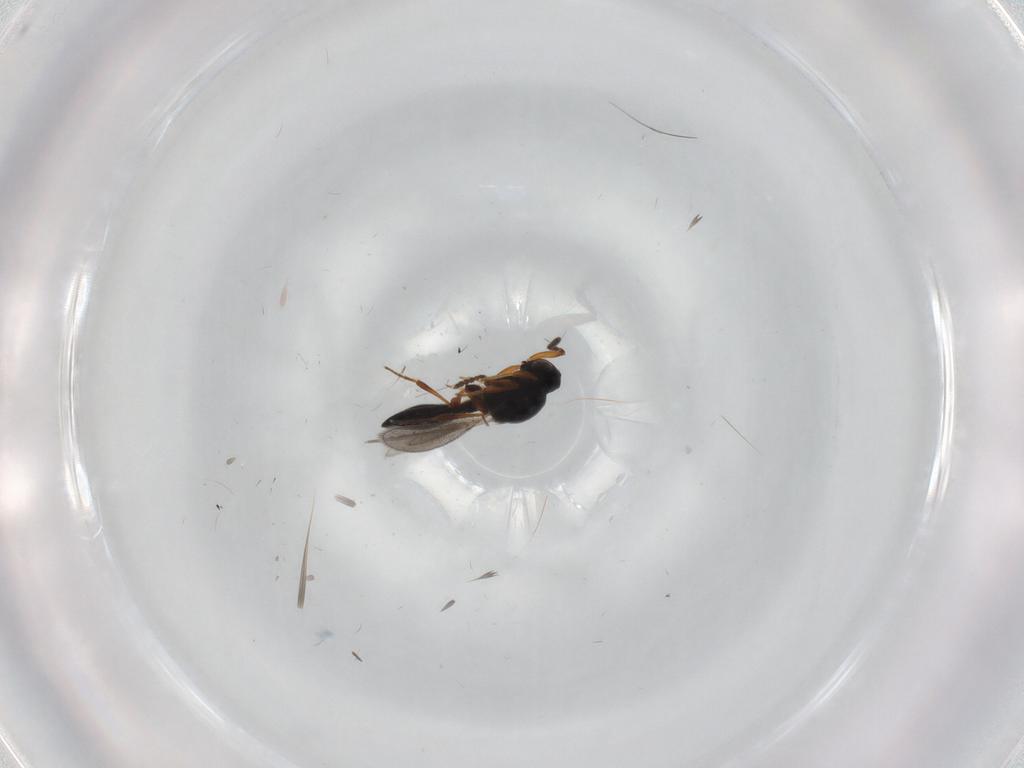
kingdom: Animalia
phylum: Arthropoda
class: Insecta
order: Hymenoptera
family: Platygastridae
